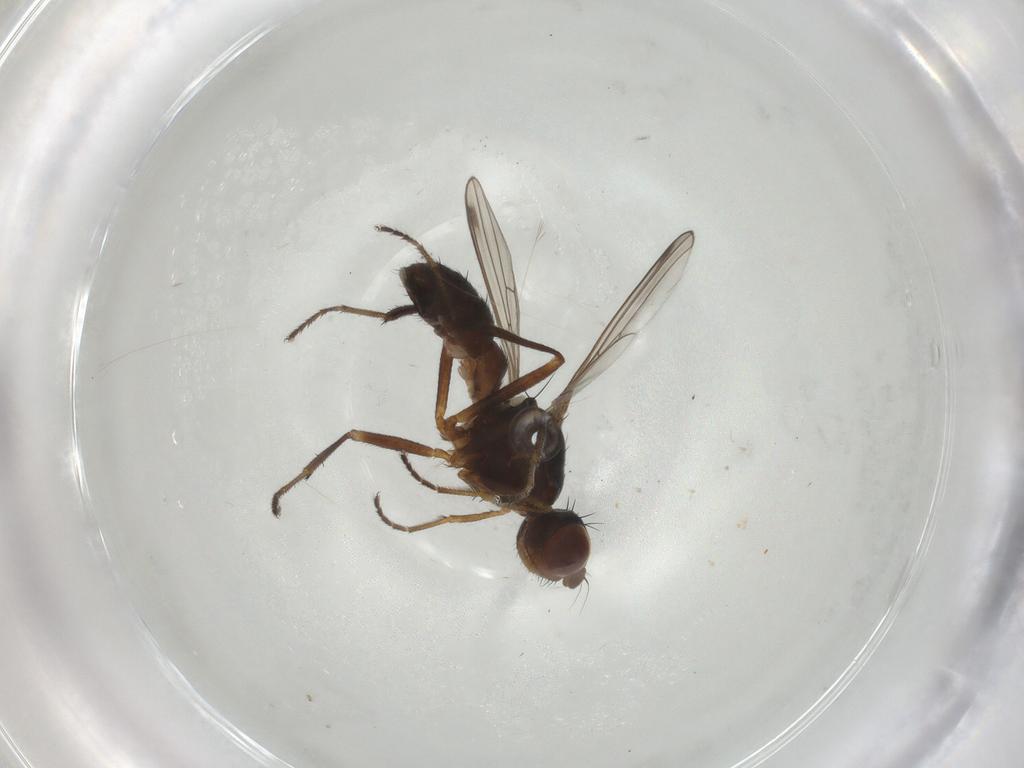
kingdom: Animalia
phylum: Arthropoda
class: Insecta
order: Diptera
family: Sepsidae
